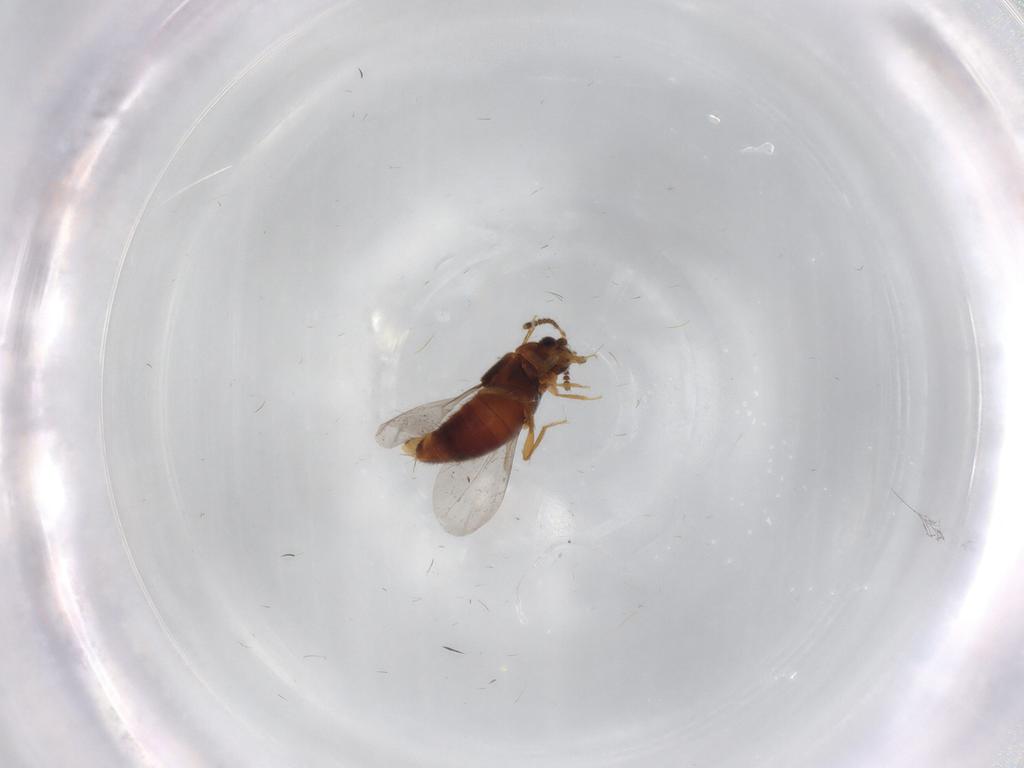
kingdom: Animalia
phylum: Arthropoda
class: Insecta
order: Coleoptera
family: Staphylinidae
